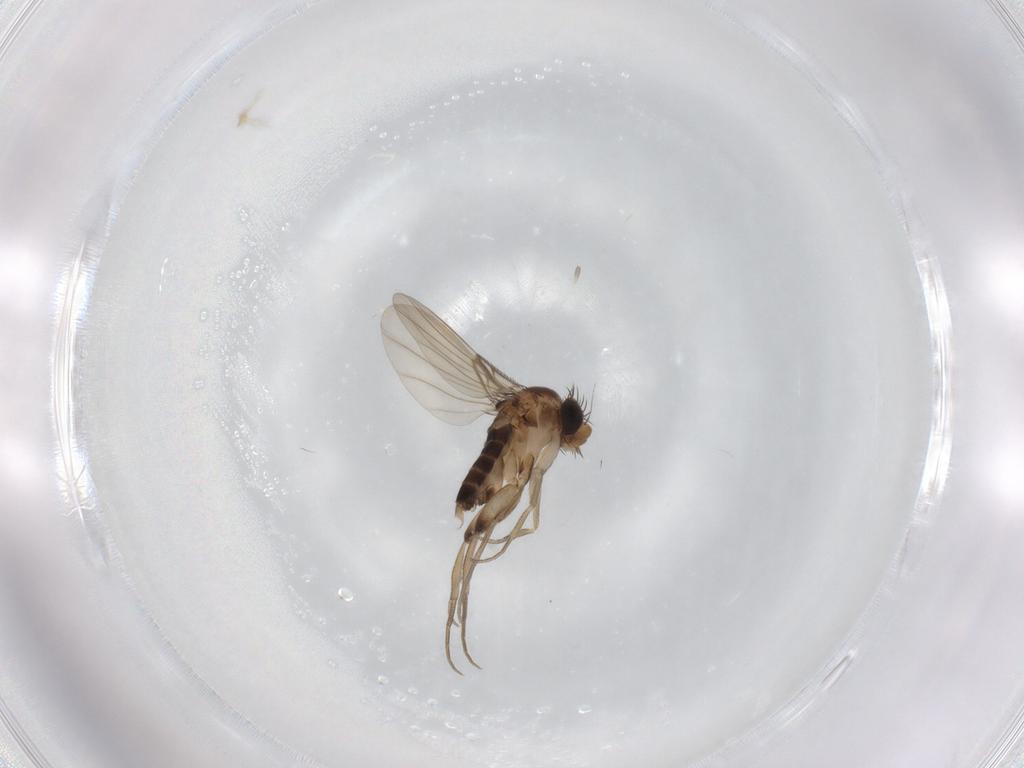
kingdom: Animalia
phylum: Arthropoda
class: Insecta
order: Diptera
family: Phoridae
